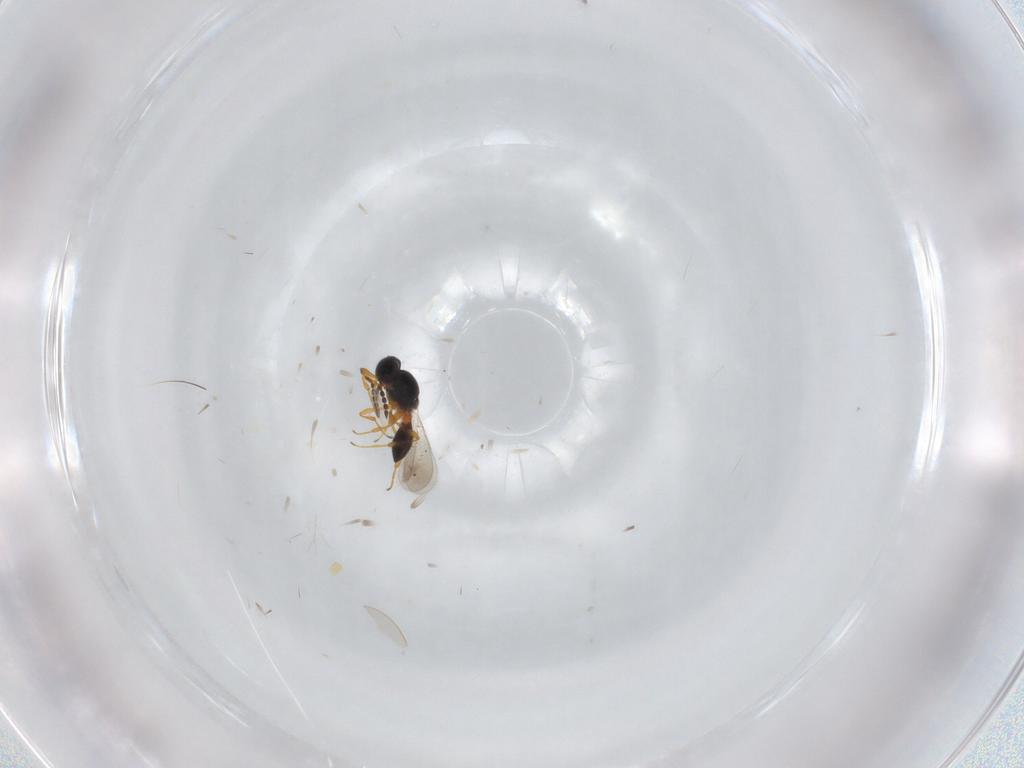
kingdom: Animalia
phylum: Arthropoda
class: Insecta
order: Hymenoptera
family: Platygastridae
